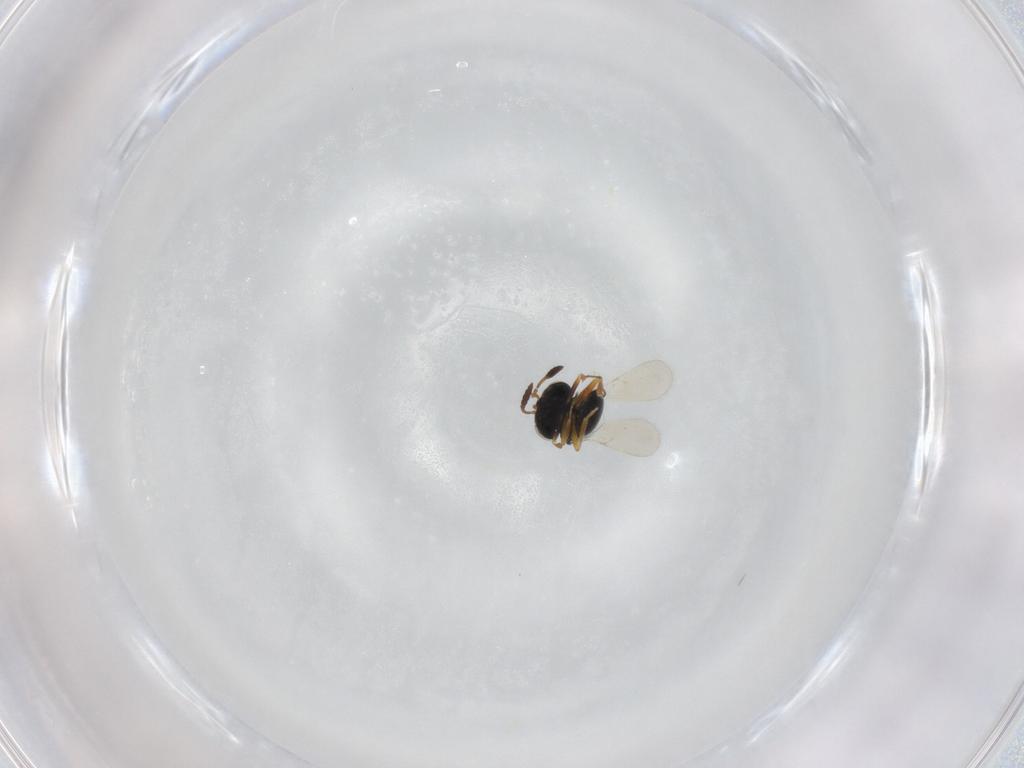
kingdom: Animalia
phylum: Arthropoda
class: Insecta
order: Hymenoptera
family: Scelionidae
